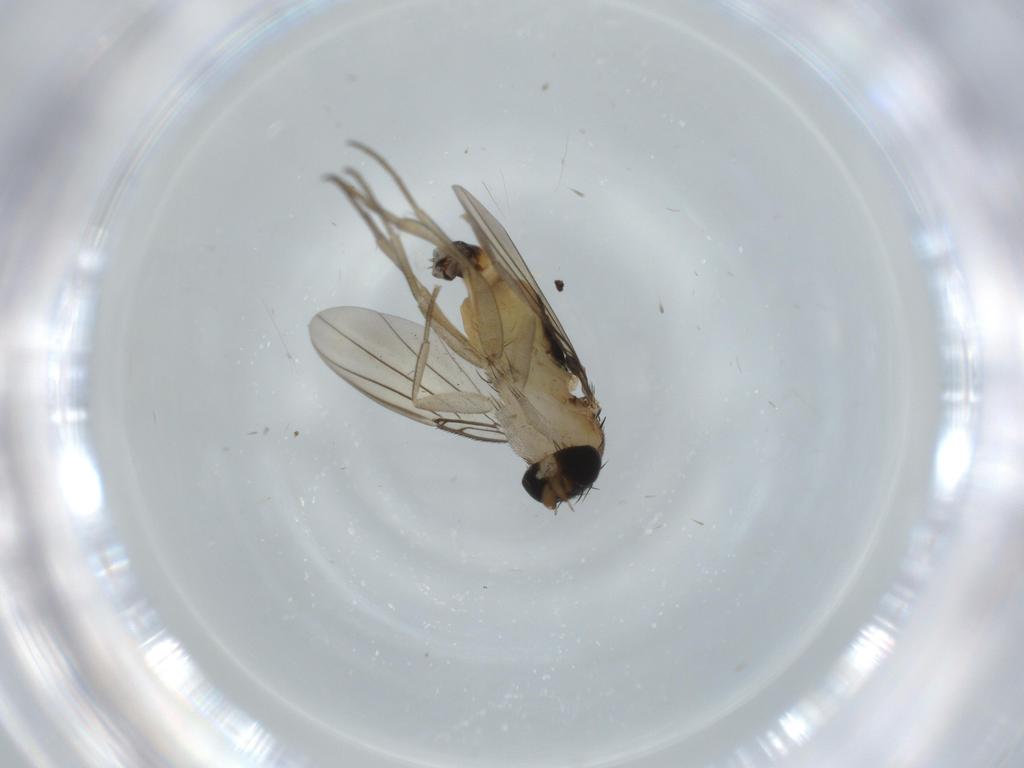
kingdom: Animalia
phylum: Arthropoda
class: Insecta
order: Diptera
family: Phoridae
